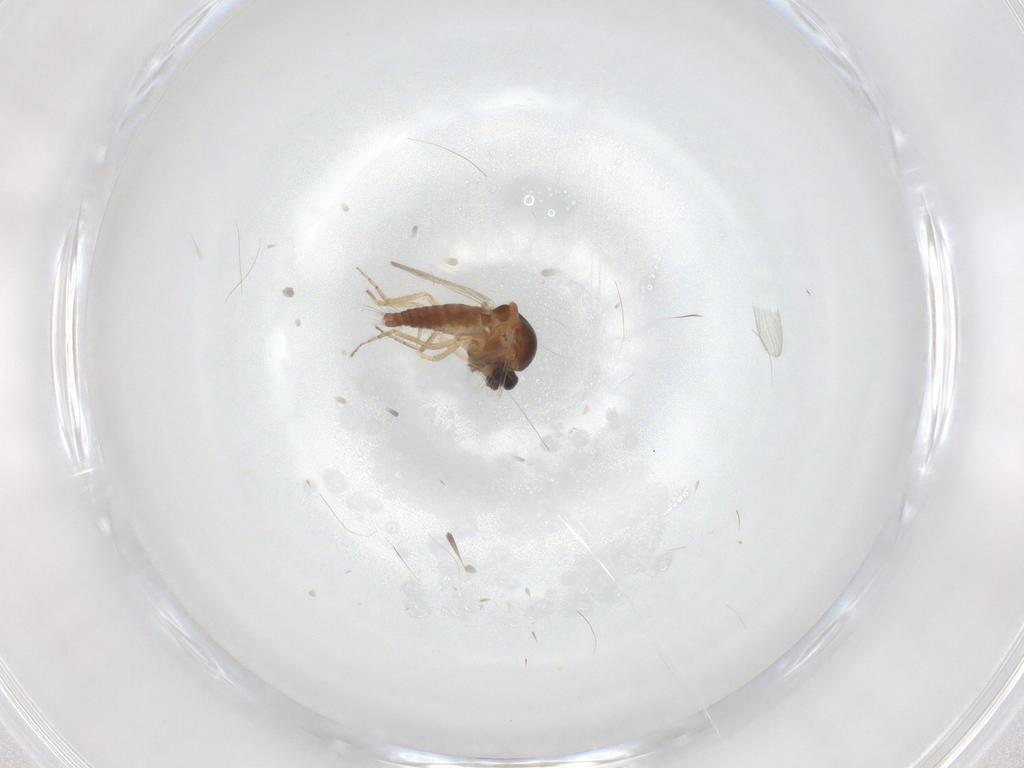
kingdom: Animalia
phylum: Arthropoda
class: Insecta
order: Diptera
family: Ceratopogonidae
